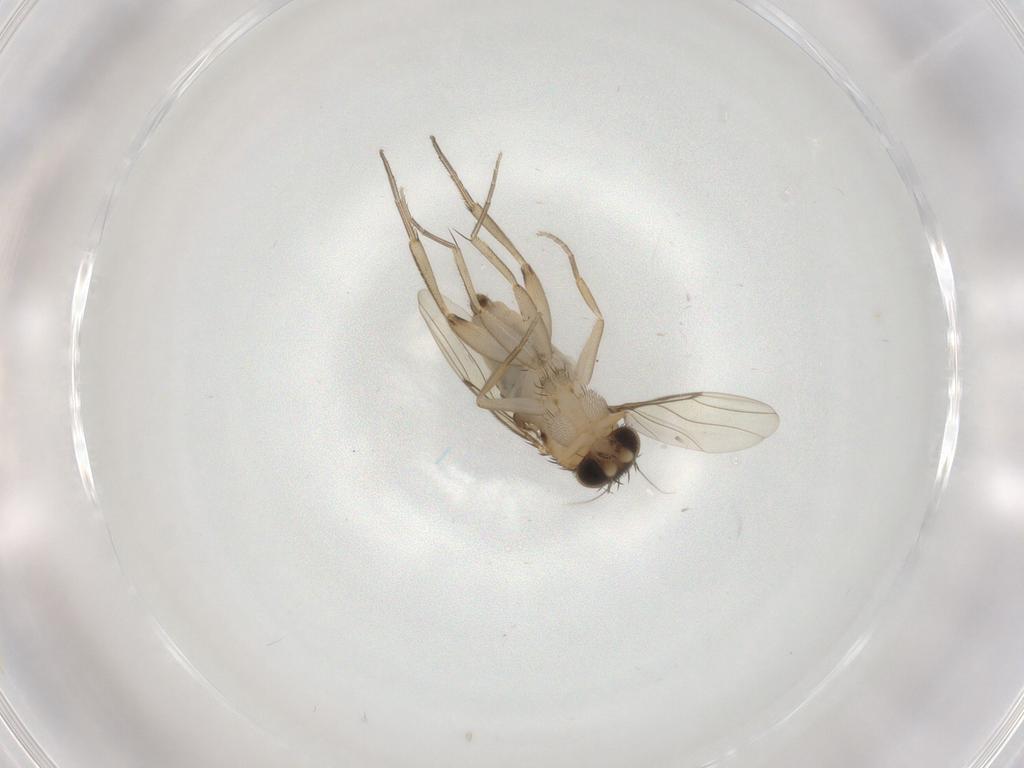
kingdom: Animalia
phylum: Arthropoda
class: Insecta
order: Diptera
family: Phoridae
